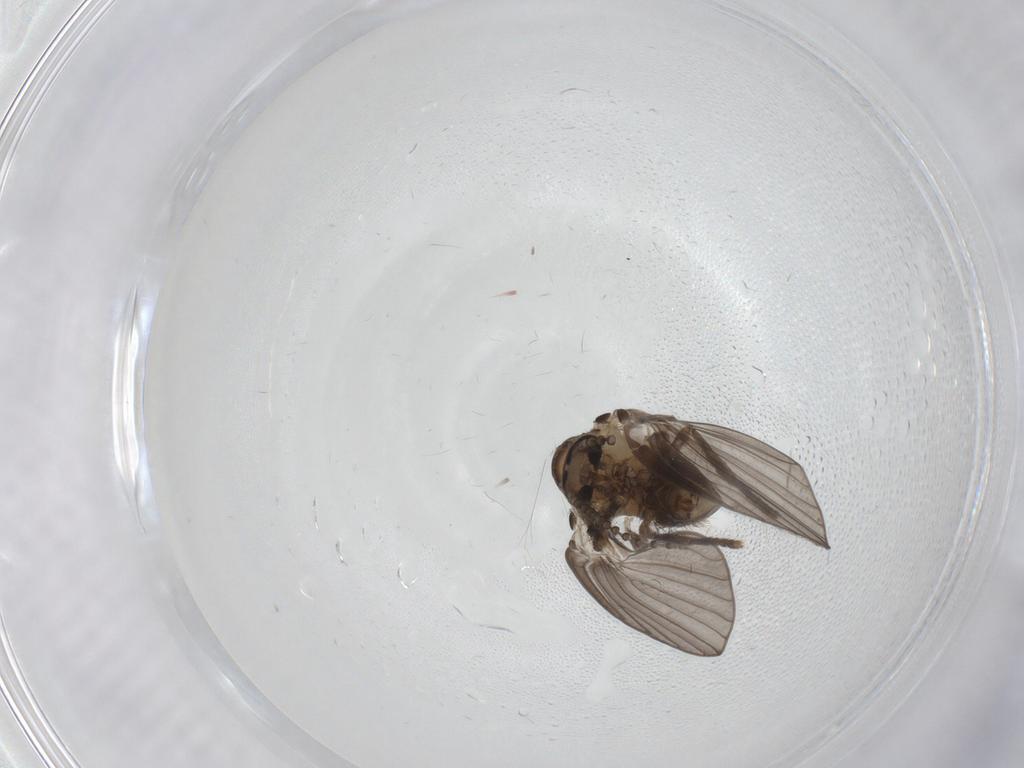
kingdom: Animalia
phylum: Arthropoda
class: Insecta
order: Diptera
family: Psychodidae
